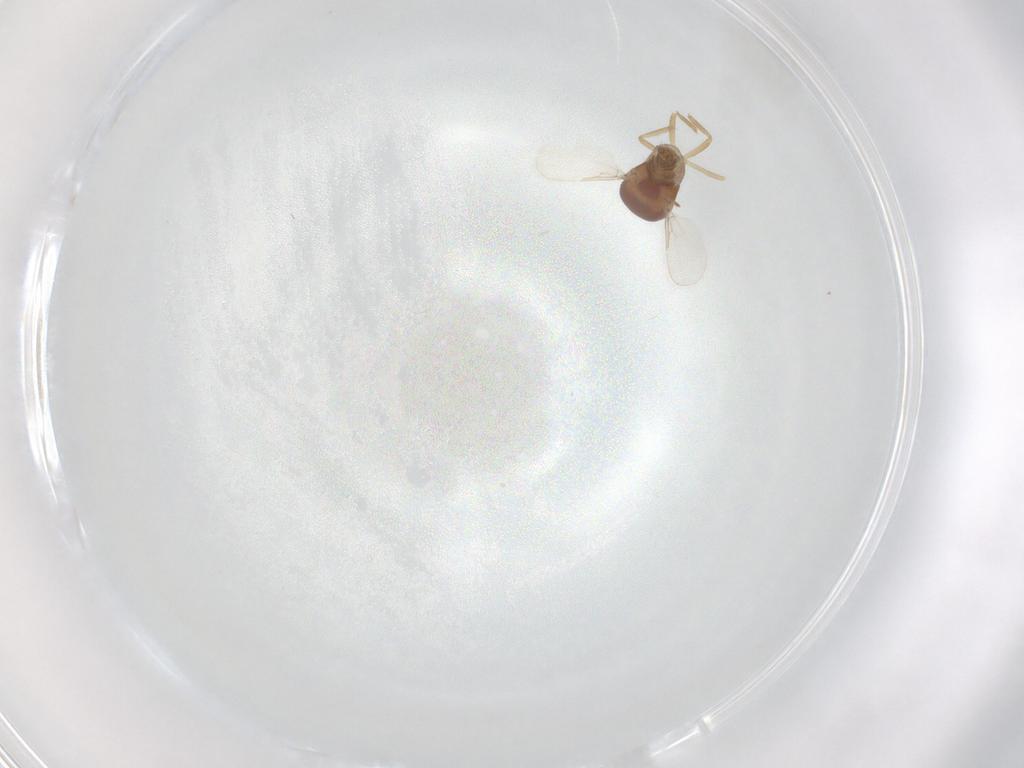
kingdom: Animalia
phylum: Arthropoda
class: Insecta
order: Diptera
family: Ceratopogonidae
